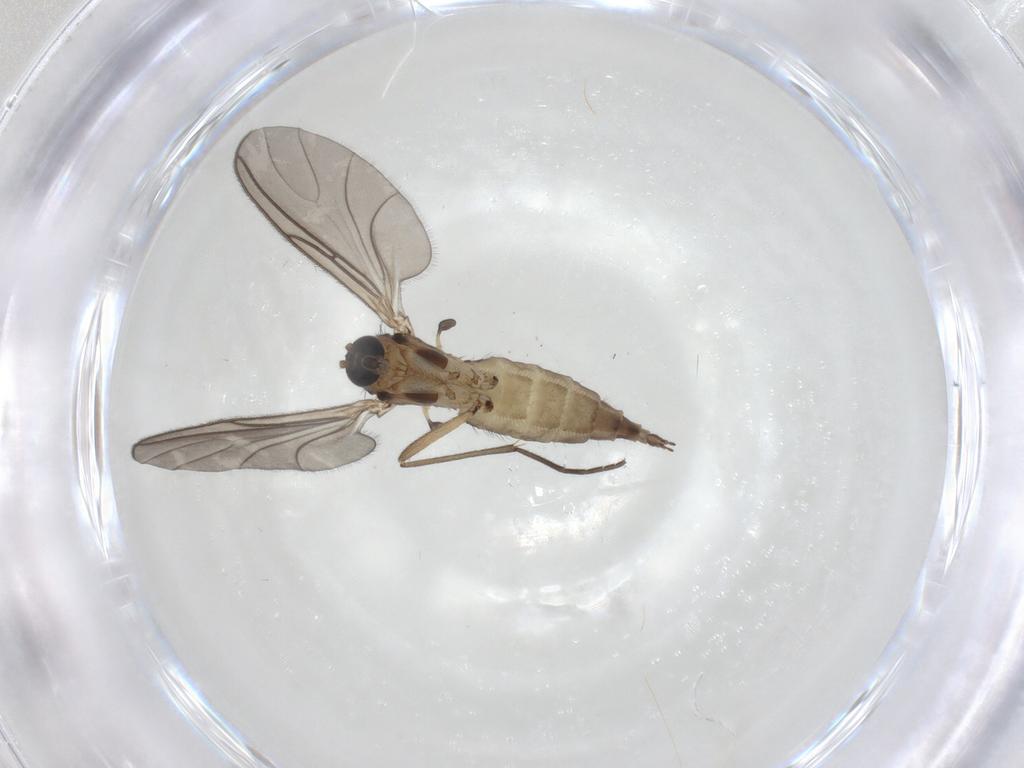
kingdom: Animalia
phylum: Arthropoda
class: Insecta
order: Diptera
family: Sciaridae
